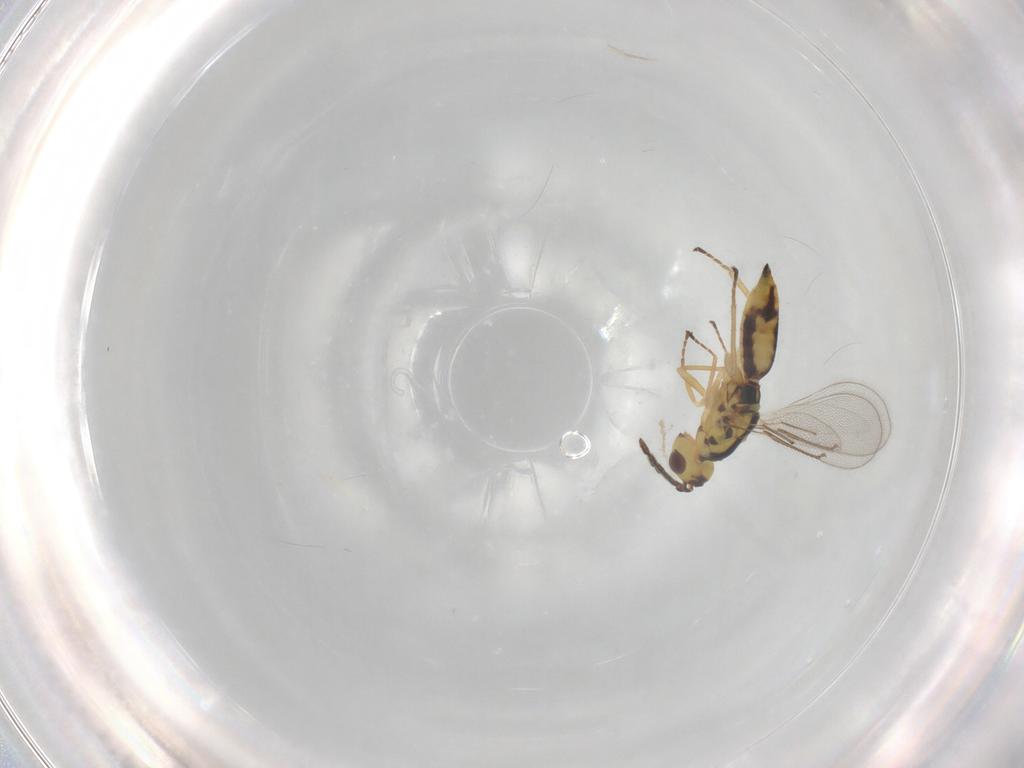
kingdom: Animalia
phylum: Arthropoda
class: Insecta
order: Hymenoptera
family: Eulophidae
